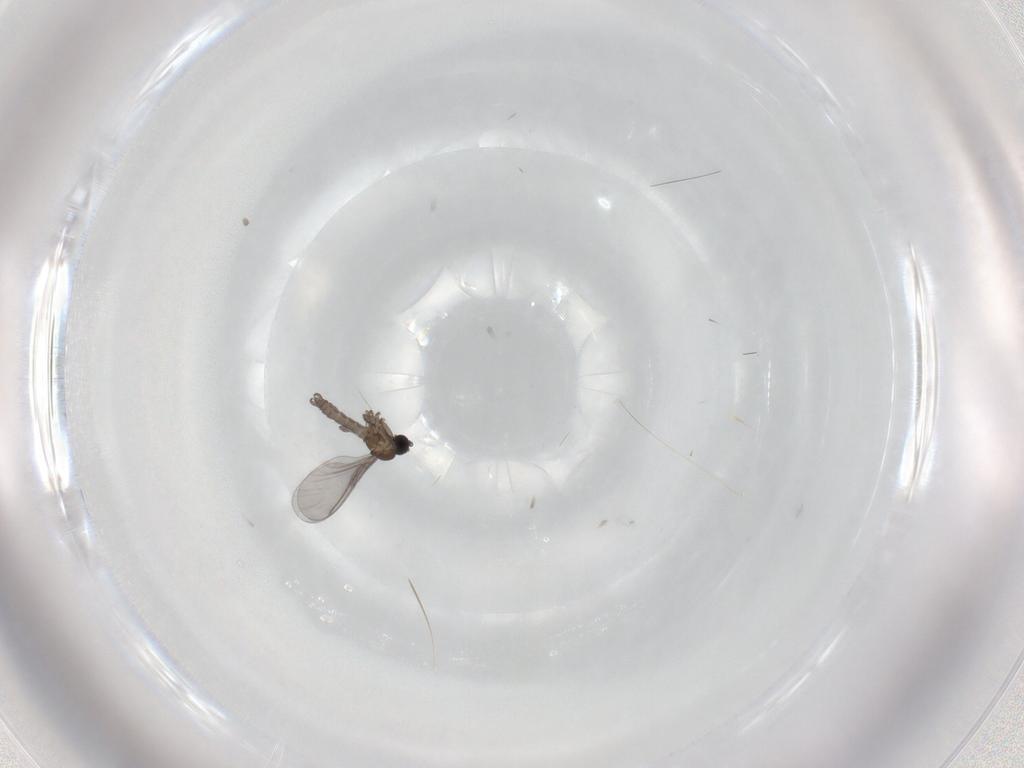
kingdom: Animalia
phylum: Arthropoda
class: Insecta
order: Diptera
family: Sciaridae
